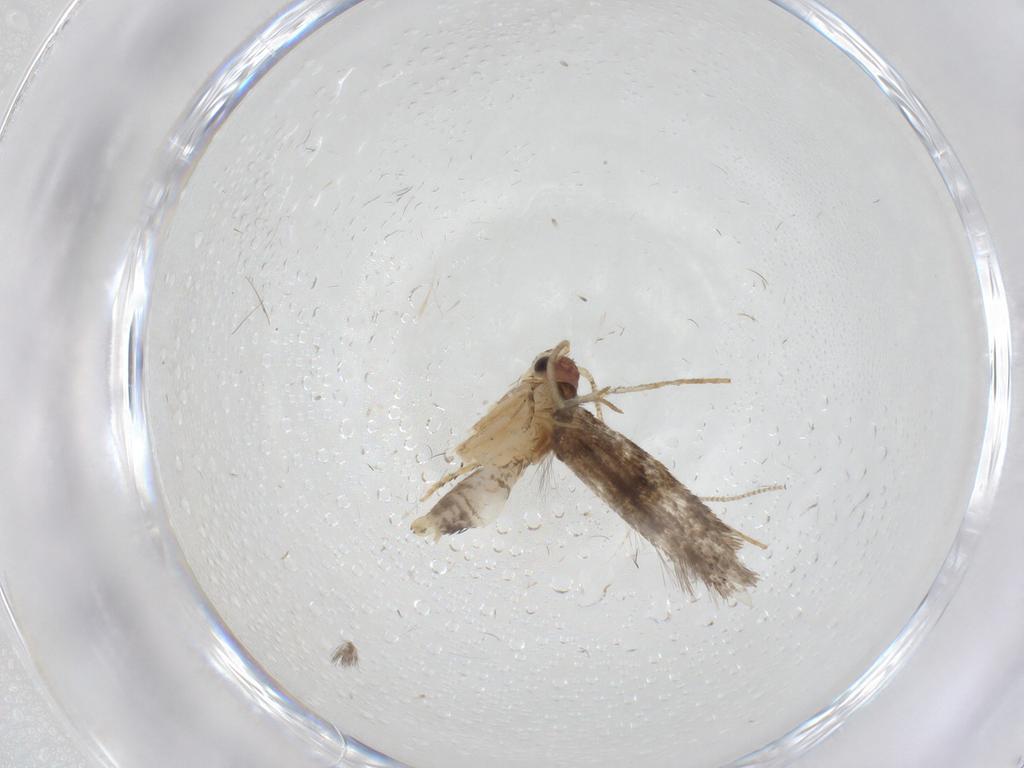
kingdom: Animalia
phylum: Arthropoda
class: Insecta
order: Lepidoptera
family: Tineidae
